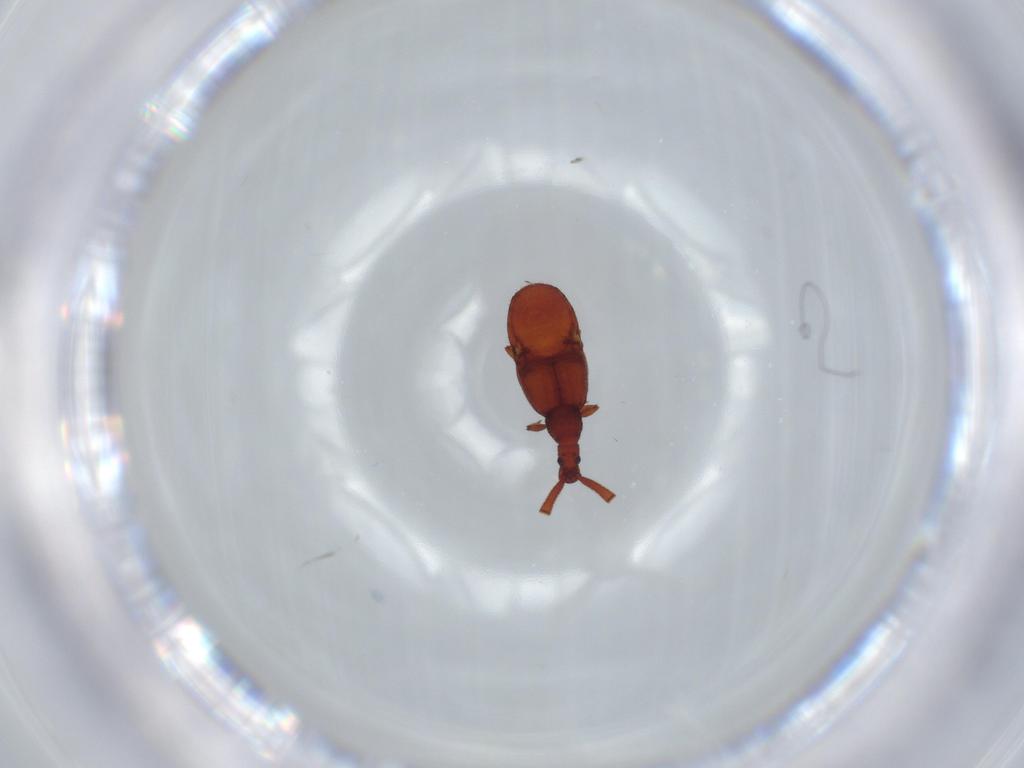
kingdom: Animalia
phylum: Arthropoda
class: Insecta
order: Coleoptera
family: Staphylinidae
